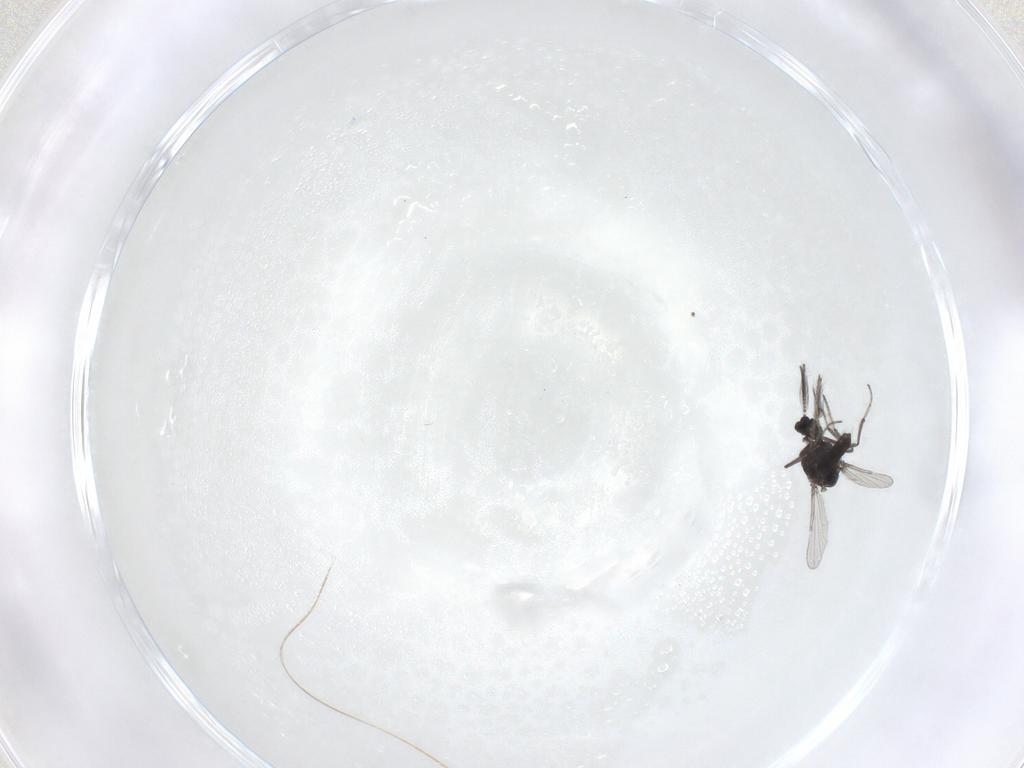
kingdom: Animalia
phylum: Arthropoda
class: Insecta
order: Diptera
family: Ceratopogonidae
